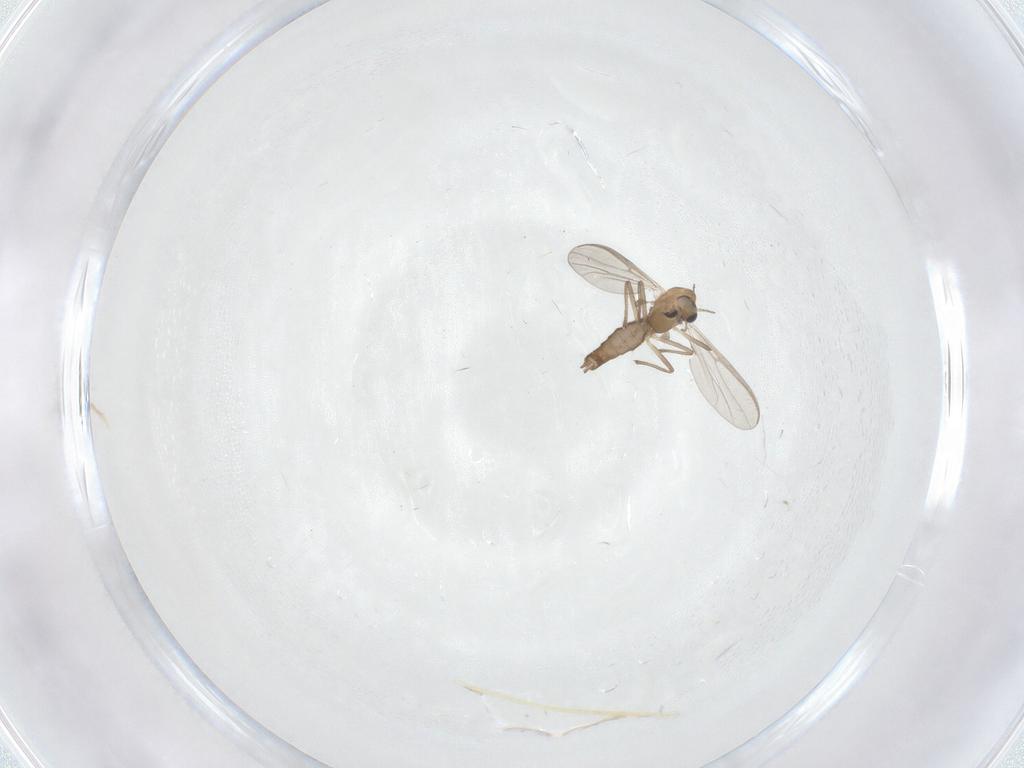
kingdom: Animalia
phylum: Arthropoda
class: Insecta
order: Diptera
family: Chironomidae
